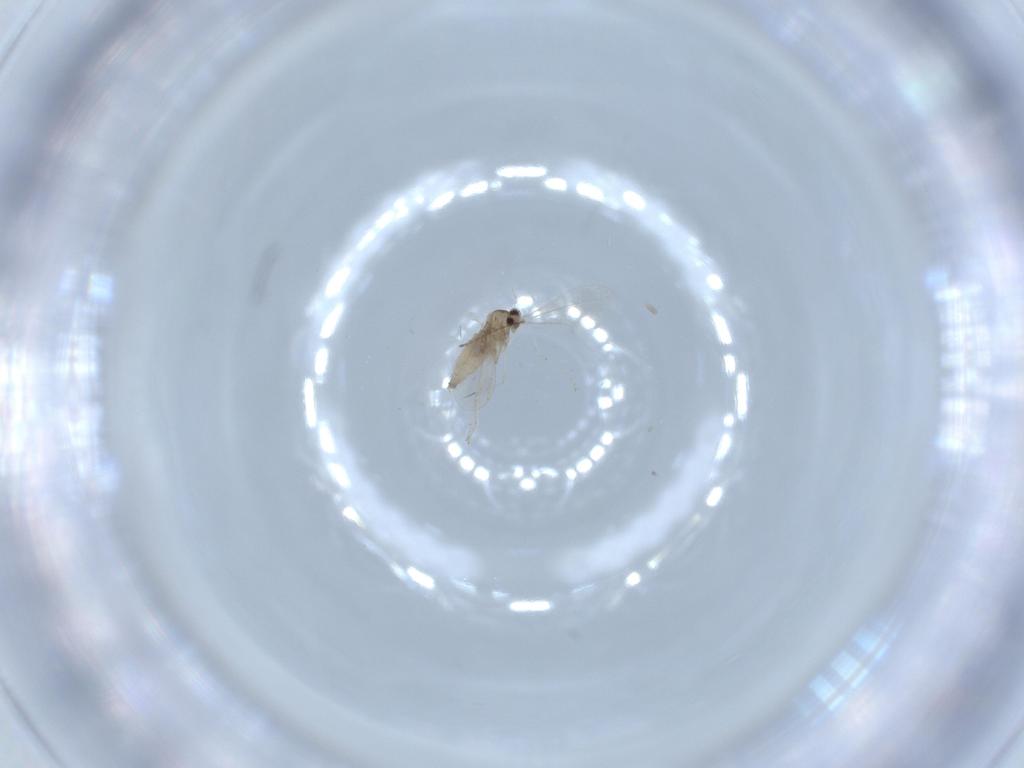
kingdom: Animalia
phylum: Arthropoda
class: Insecta
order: Diptera
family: Cecidomyiidae
